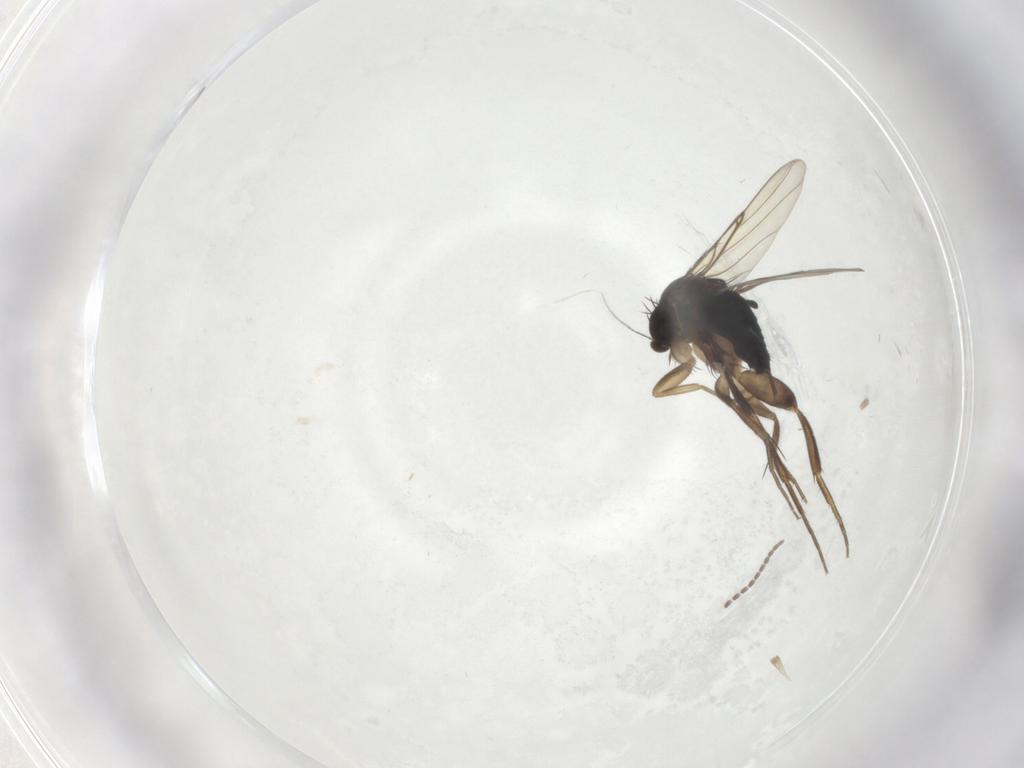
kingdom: Animalia
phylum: Arthropoda
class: Insecta
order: Diptera
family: Phoridae
